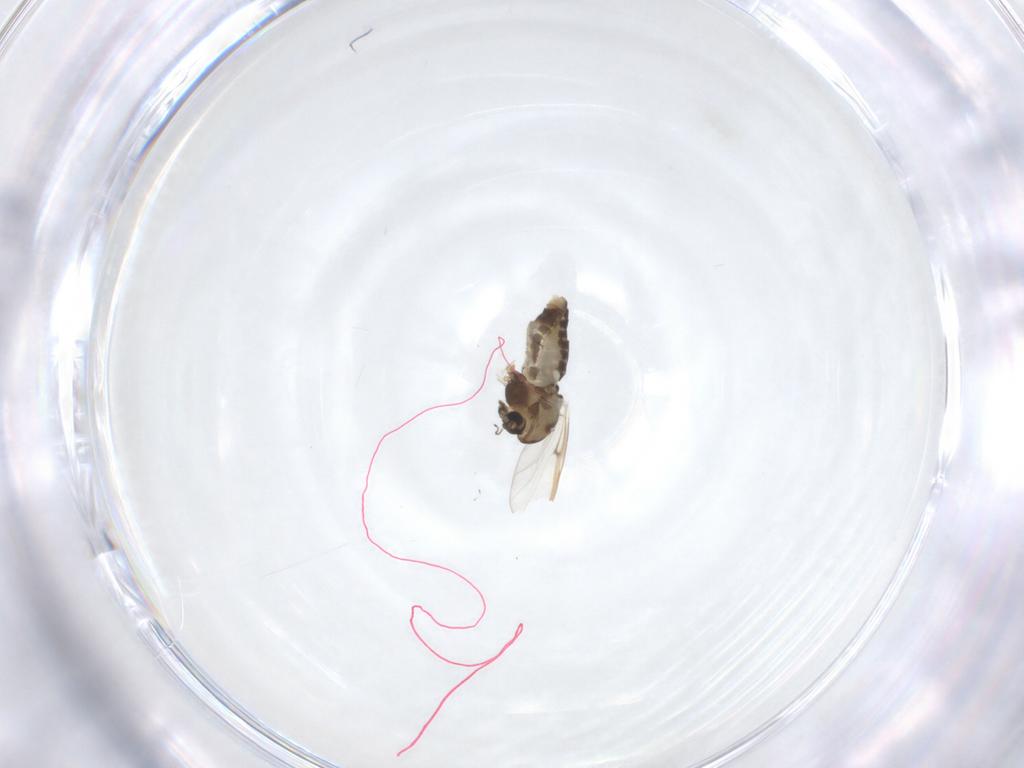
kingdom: Animalia
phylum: Arthropoda
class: Insecta
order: Diptera
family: Chironomidae
